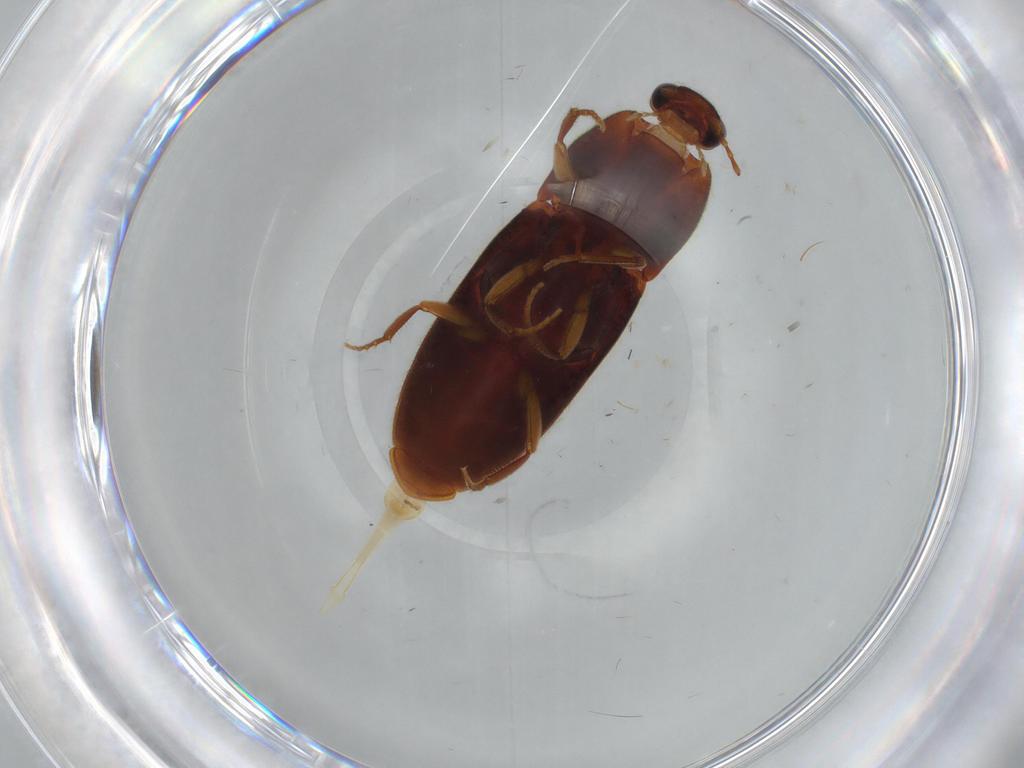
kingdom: Animalia
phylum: Arthropoda
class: Insecta
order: Coleoptera
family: Elateridae
